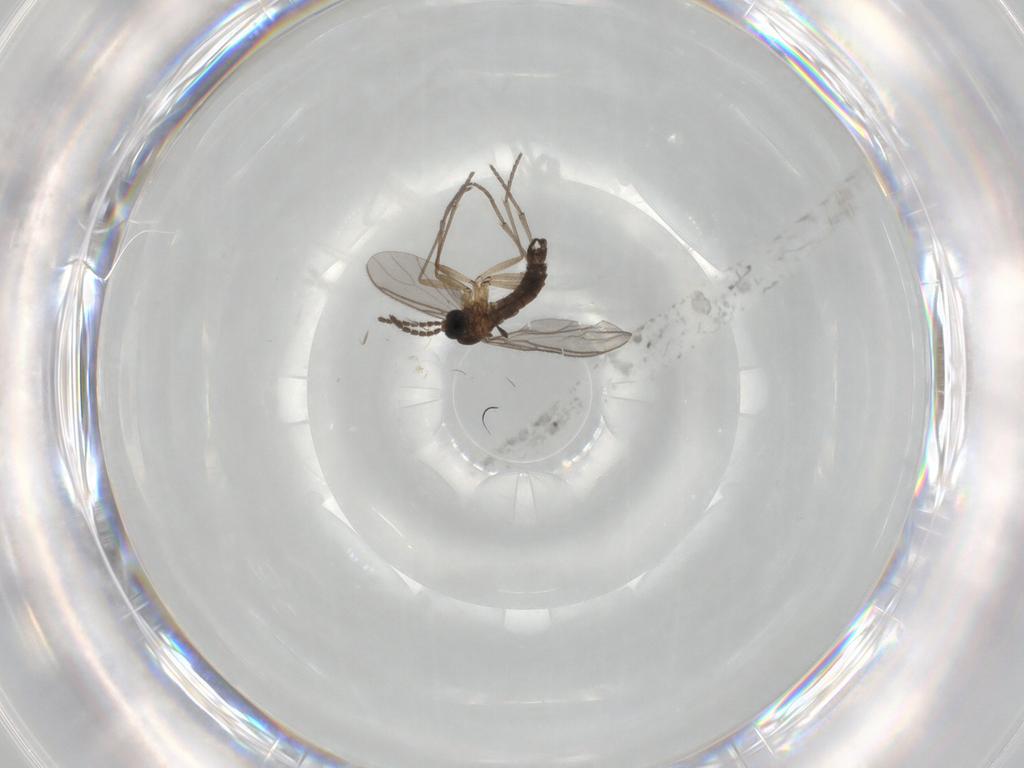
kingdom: Animalia
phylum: Arthropoda
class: Insecta
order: Diptera
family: Sciaridae
